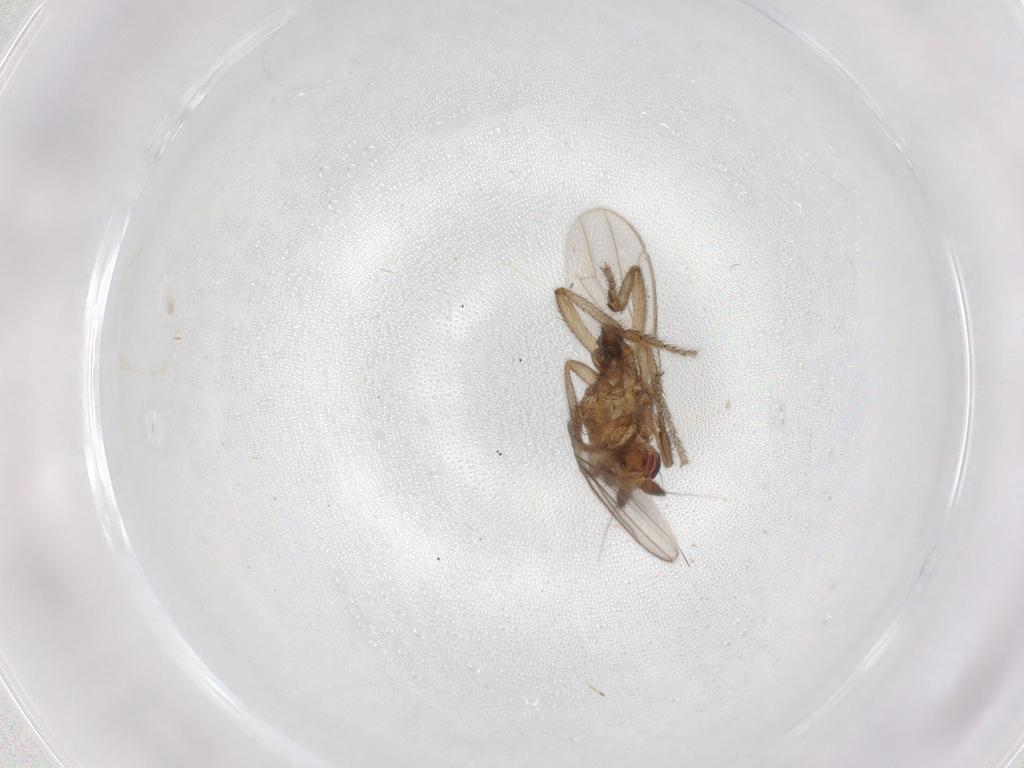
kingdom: Animalia
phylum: Arthropoda
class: Insecta
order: Diptera
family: Sphaeroceridae
